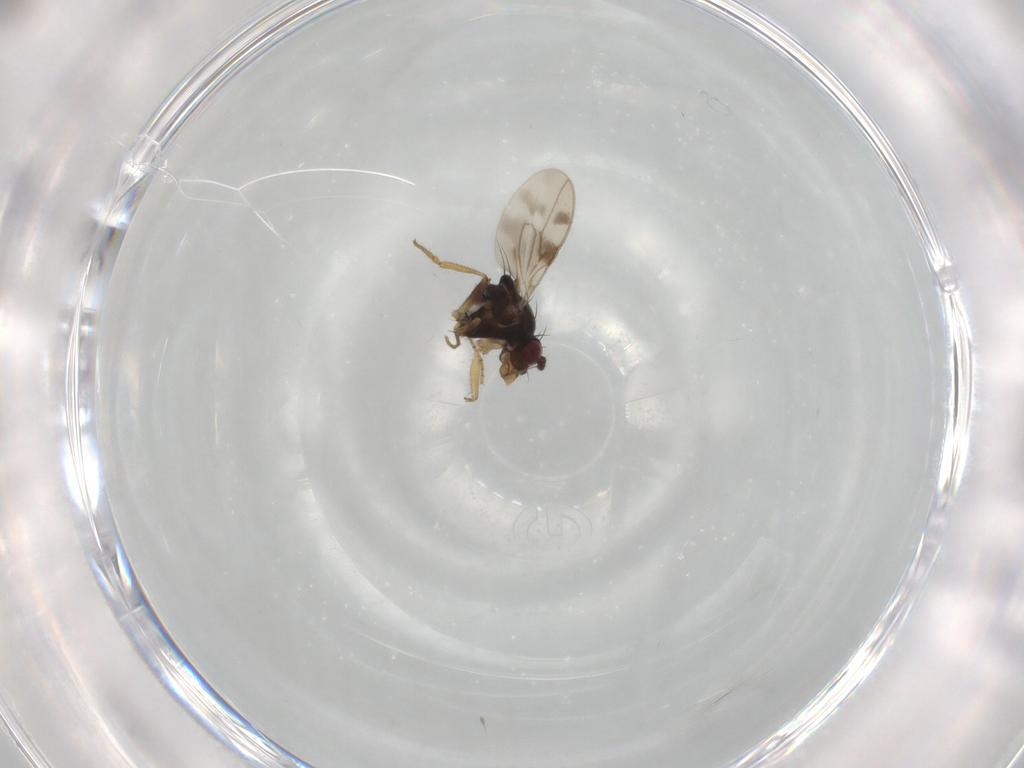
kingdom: Animalia
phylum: Arthropoda
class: Insecta
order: Diptera
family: Sphaeroceridae
